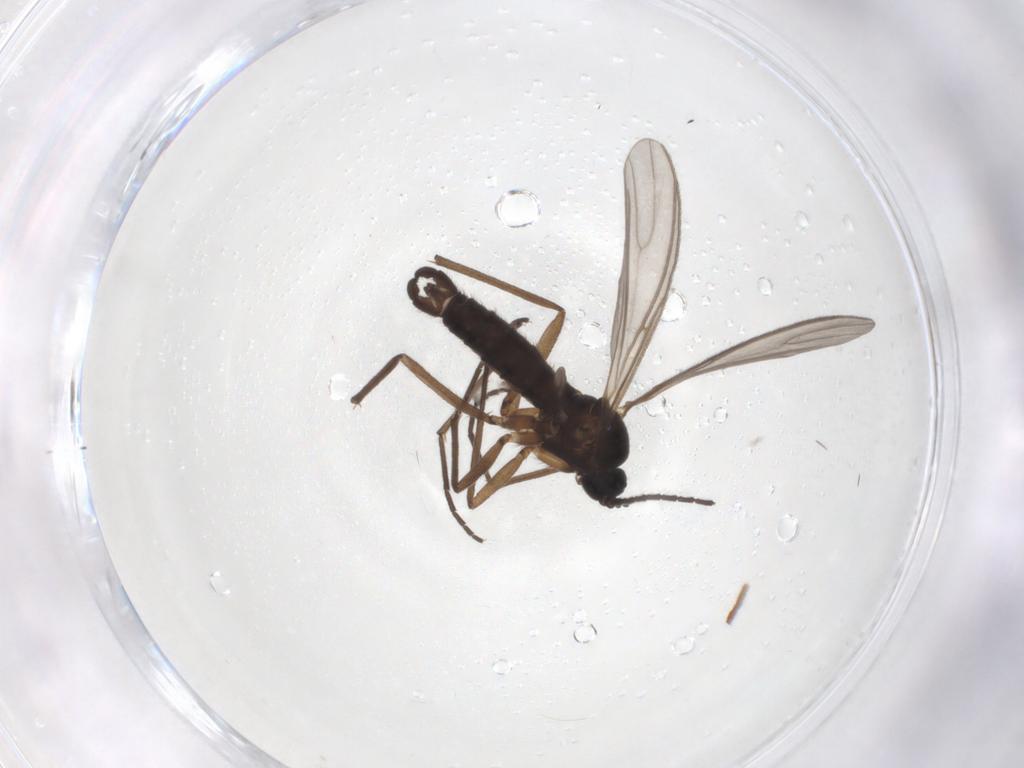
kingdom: Animalia
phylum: Arthropoda
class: Insecta
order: Diptera
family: Sciaridae
